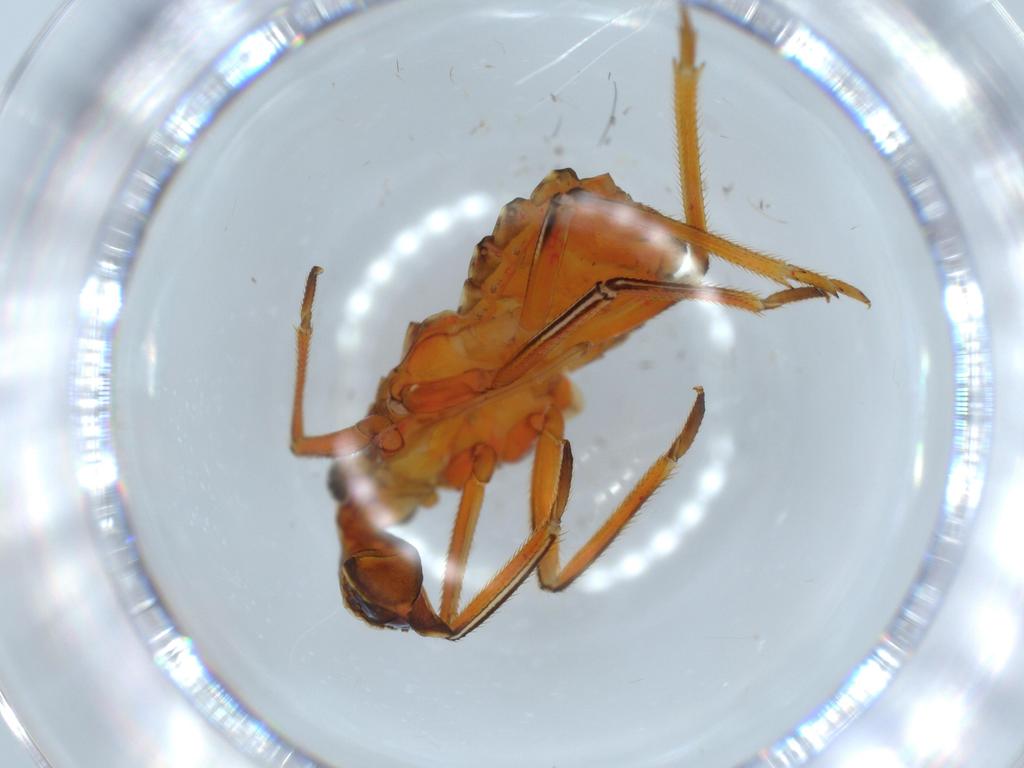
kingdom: Animalia
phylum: Arthropoda
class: Insecta
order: Hemiptera
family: Fulgoridae
